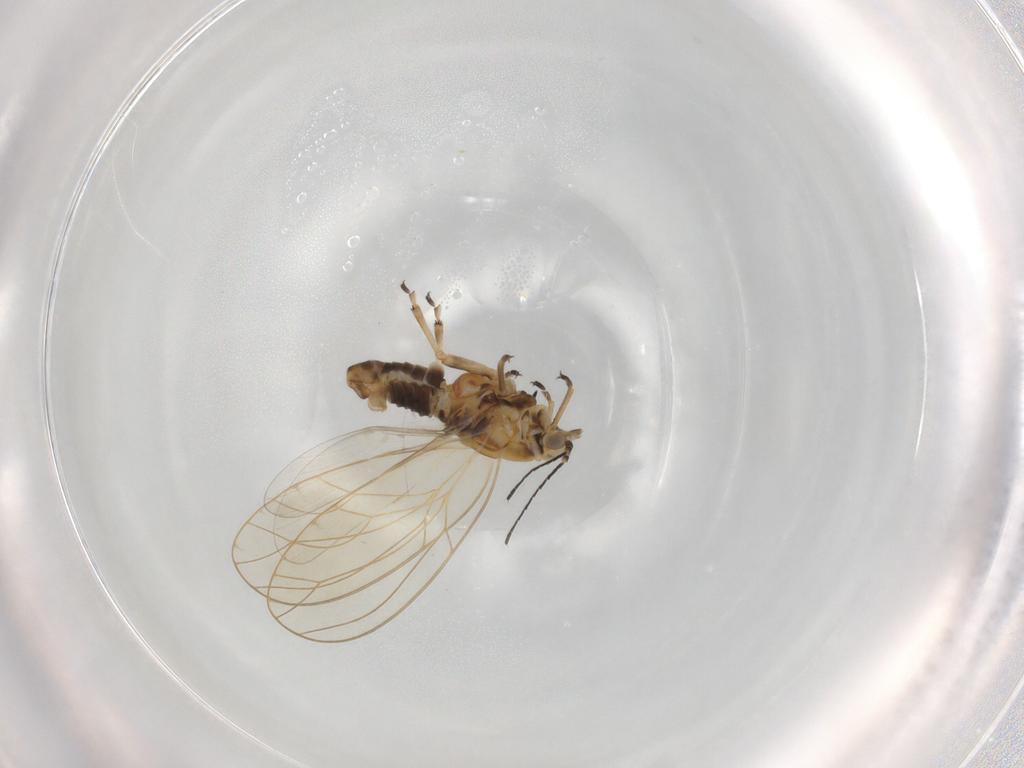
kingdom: Animalia
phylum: Arthropoda
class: Insecta
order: Hemiptera
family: Triozidae
